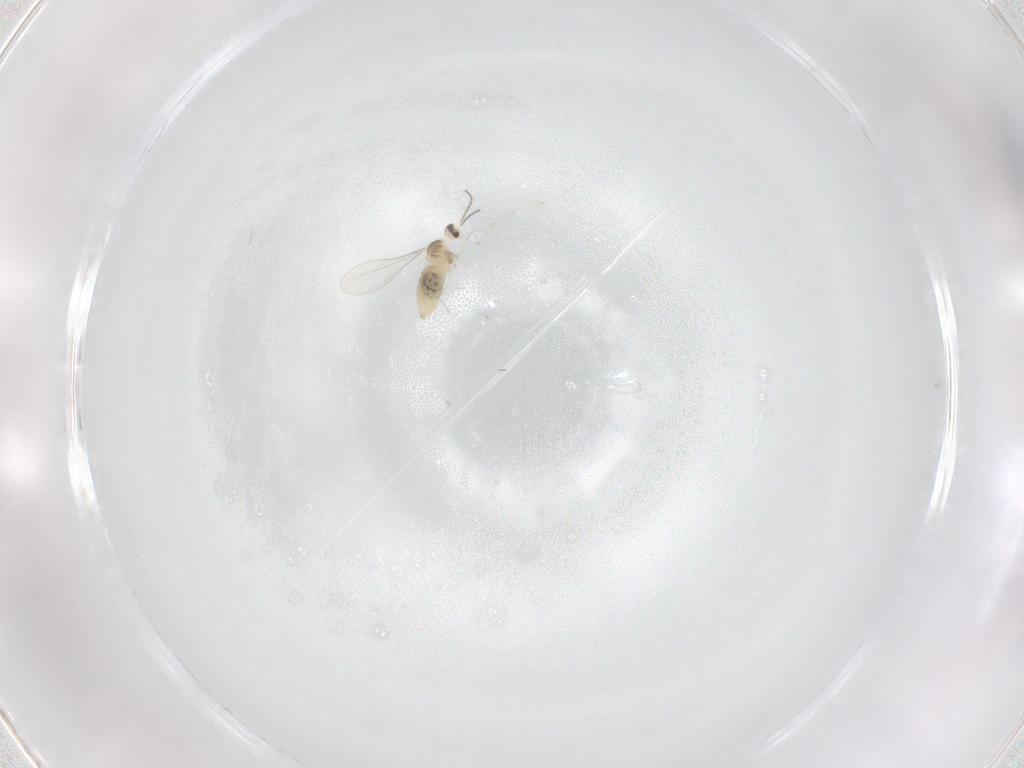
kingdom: Animalia
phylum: Arthropoda
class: Insecta
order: Diptera
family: Cecidomyiidae
